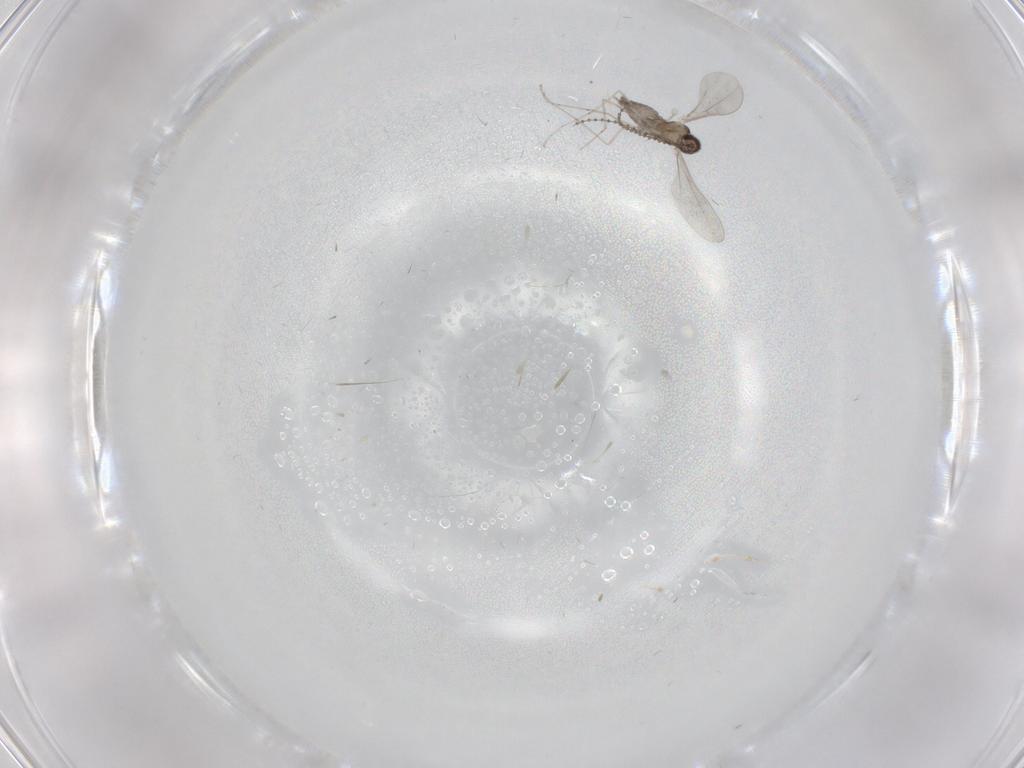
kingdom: Animalia
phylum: Arthropoda
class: Insecta
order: Diptera
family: Cecidomyiidae
